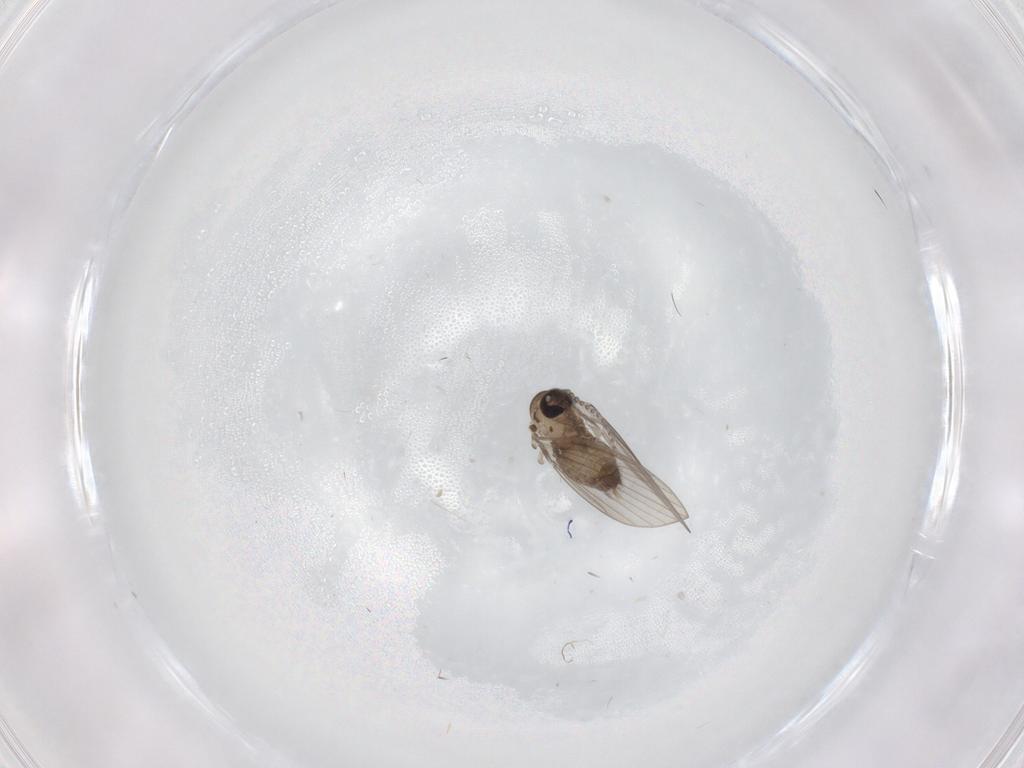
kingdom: Animalia
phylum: Arthropoda
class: Insecta
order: Diptera
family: Psychodidae
